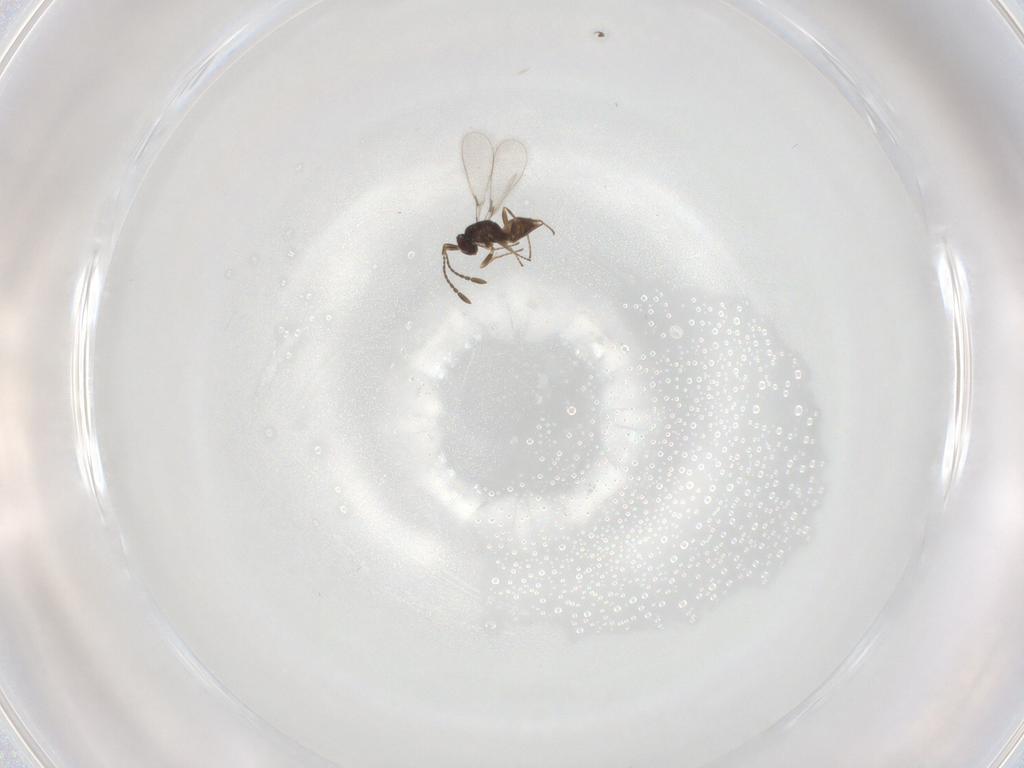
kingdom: Animalia
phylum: Arthropoda
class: Insecta
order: Hymenoptera
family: Mymaridae
